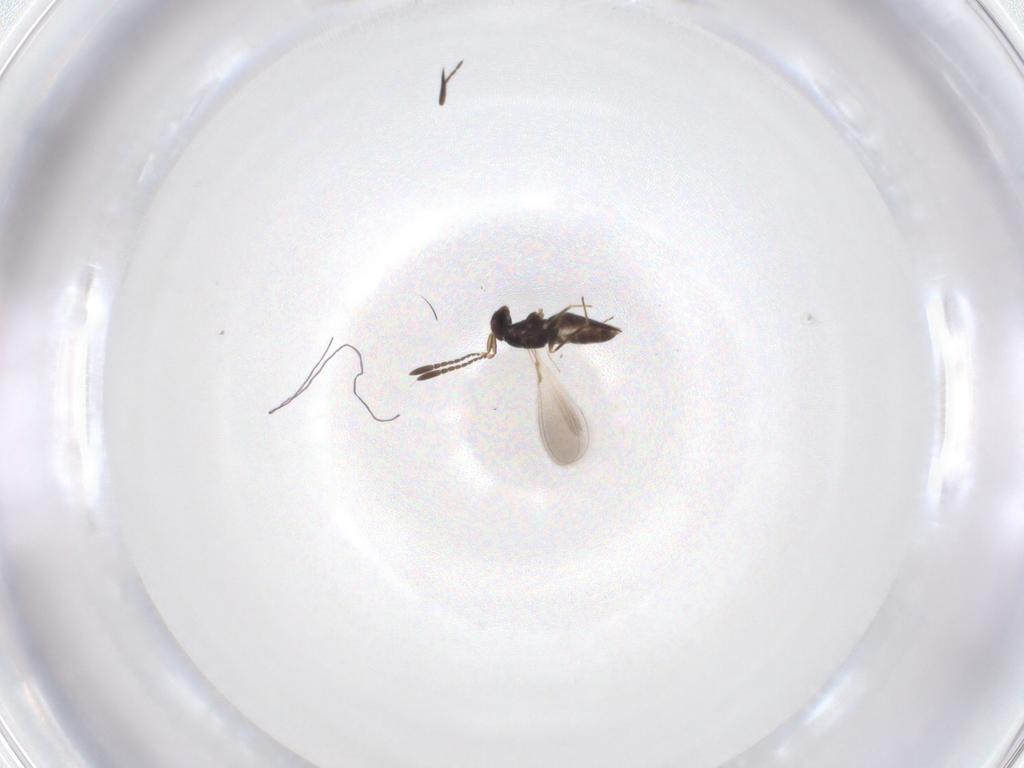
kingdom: Animalia
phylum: Arthropoda
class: Insecta
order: Hymenoptera
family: Mymaridae
